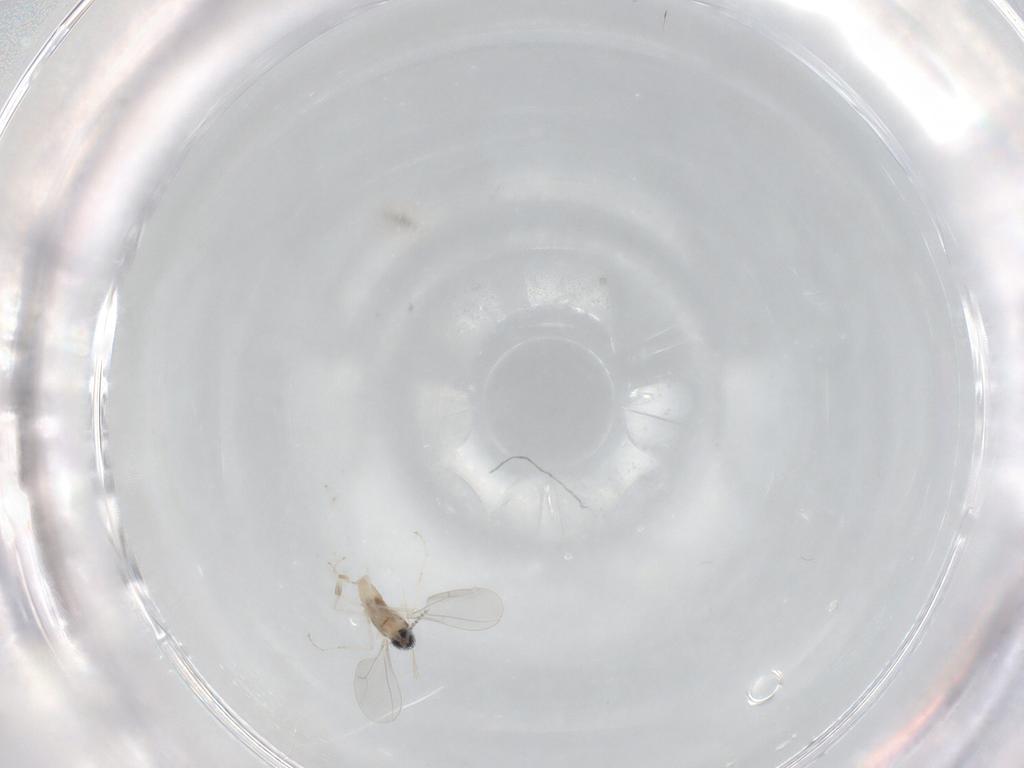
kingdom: Animalia
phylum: Arthropoda
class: Insecta
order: Diptera
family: Cecidomyiidae
